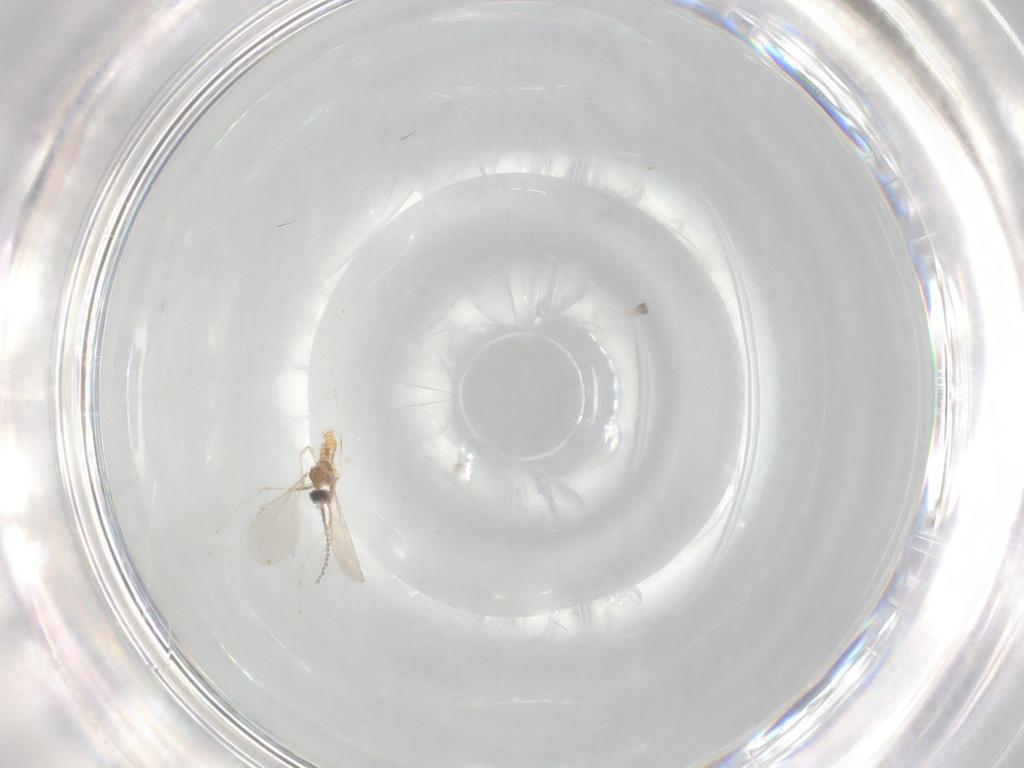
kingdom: Animalia
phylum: Arthropoda
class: Insecta
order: Diptera
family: Cecidomyiidae
